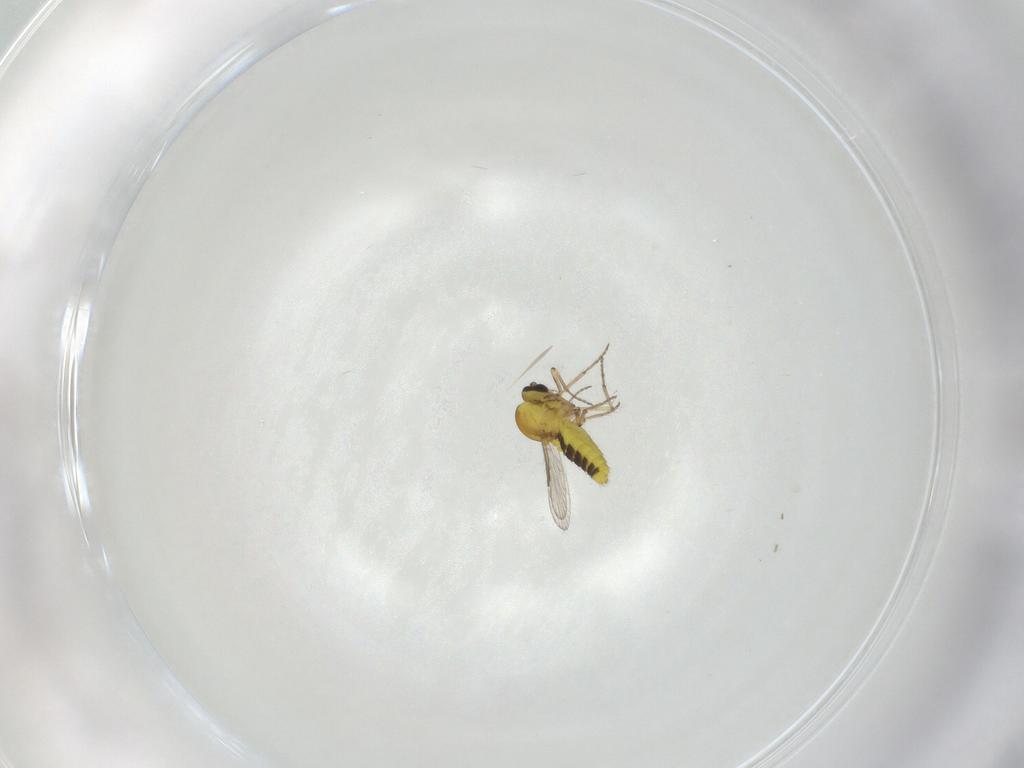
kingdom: Animalia
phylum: Arthropoda
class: Insecta
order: Diptera
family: Ceratopogonidae
